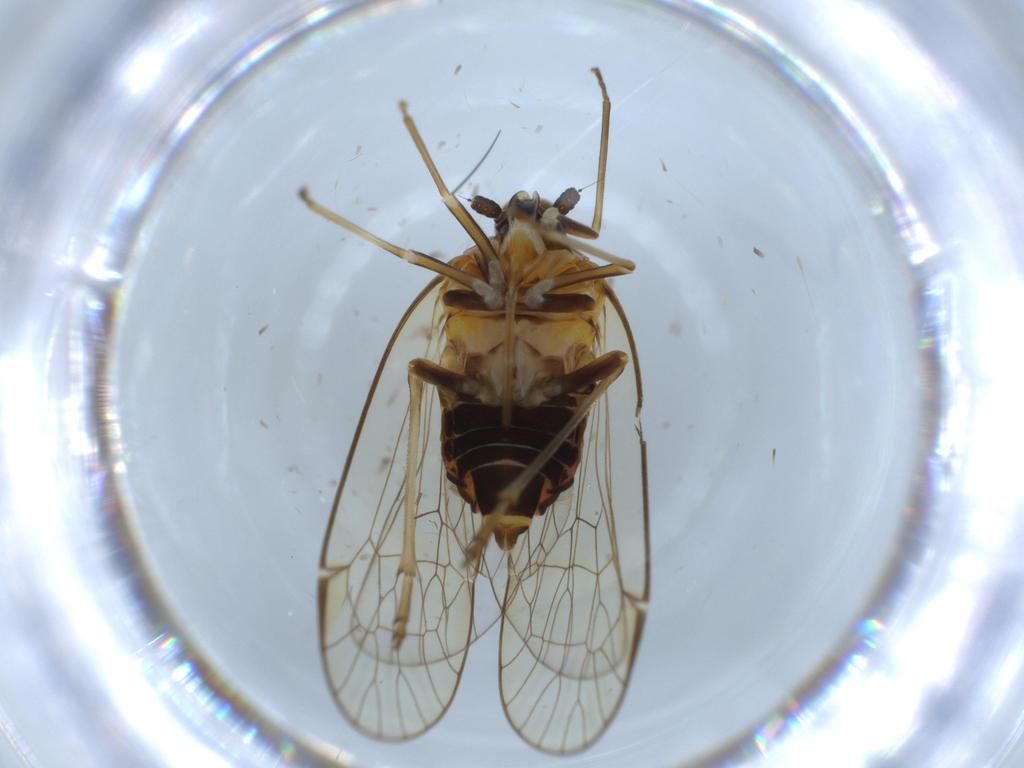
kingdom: Animalia
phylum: Arthropoda
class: Insecta
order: Hemiptera
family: Kinnaridae
